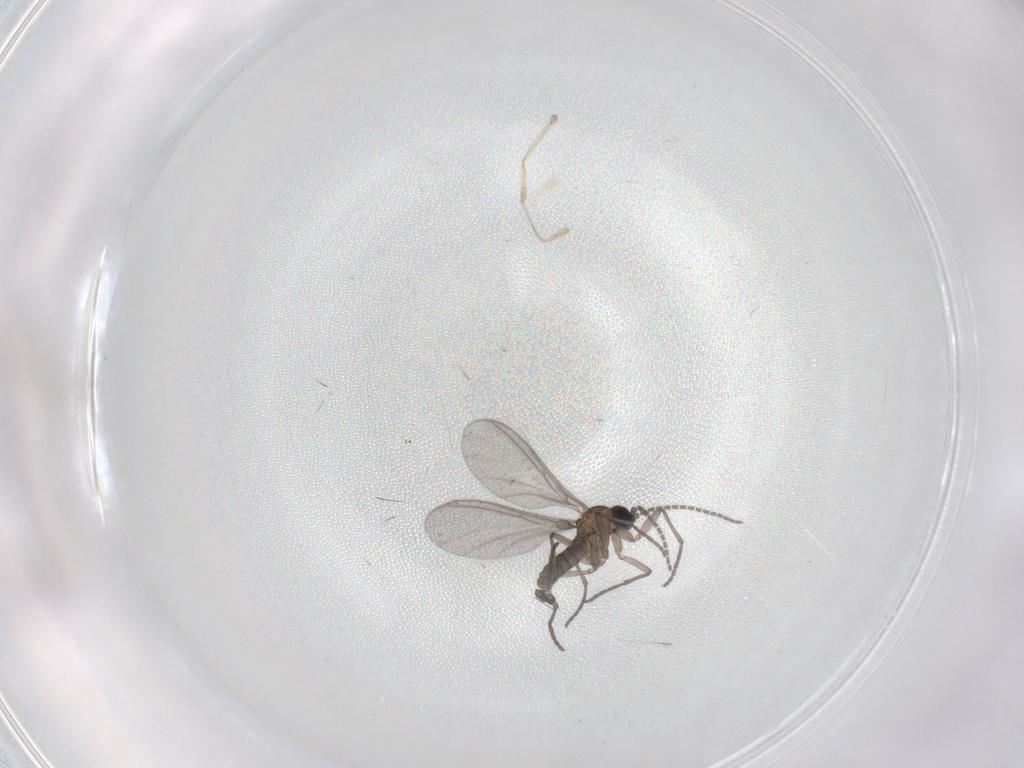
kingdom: Animalia
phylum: Arthropoda
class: Insecta
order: Diptera
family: Sciaridae
